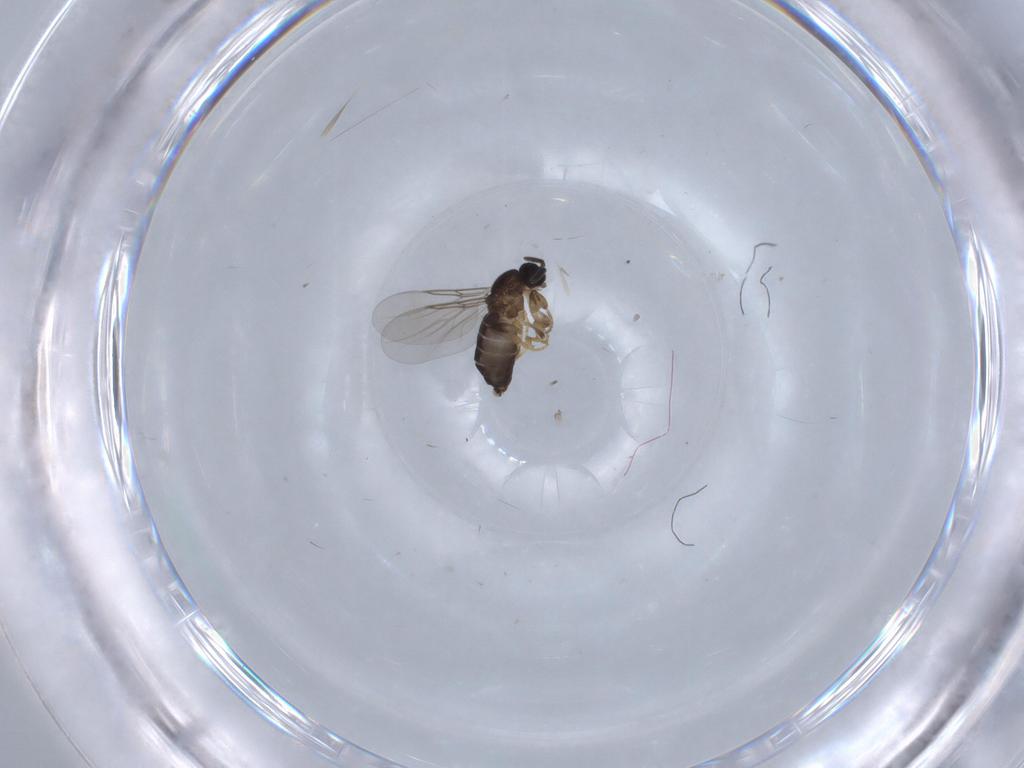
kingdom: Animalia
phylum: Arthropoda
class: Insecta
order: Diptera
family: Scatopsidae
